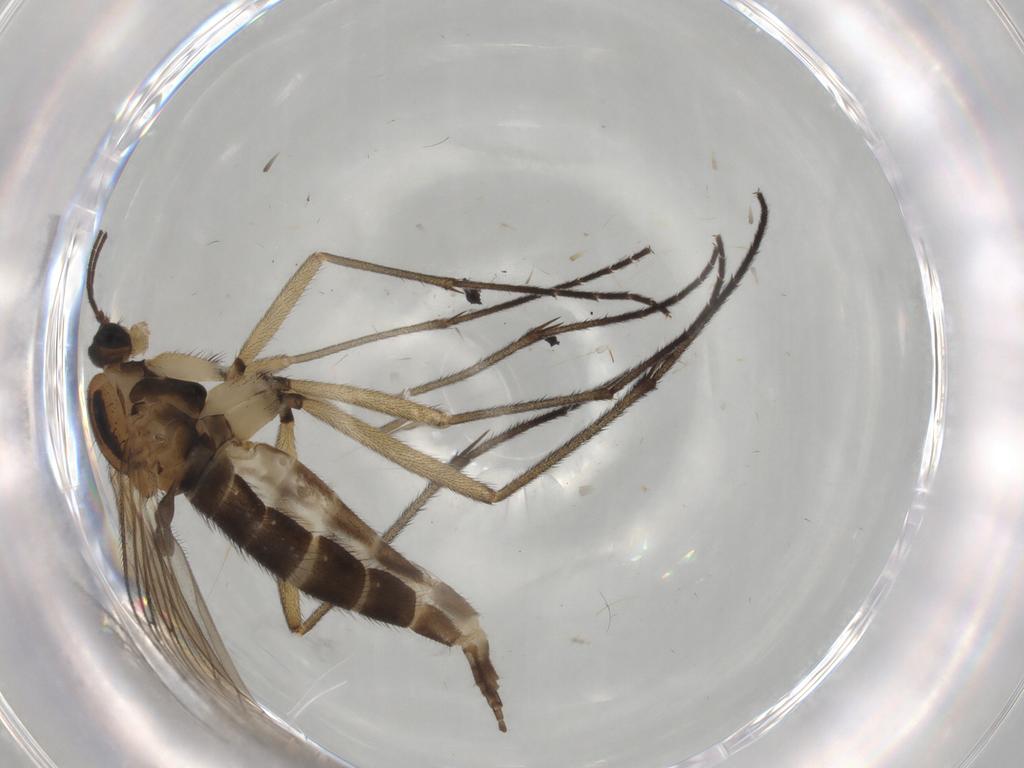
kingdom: Animalia
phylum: Arthropoda
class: Insecta
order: Diptera
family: Sciaridae
